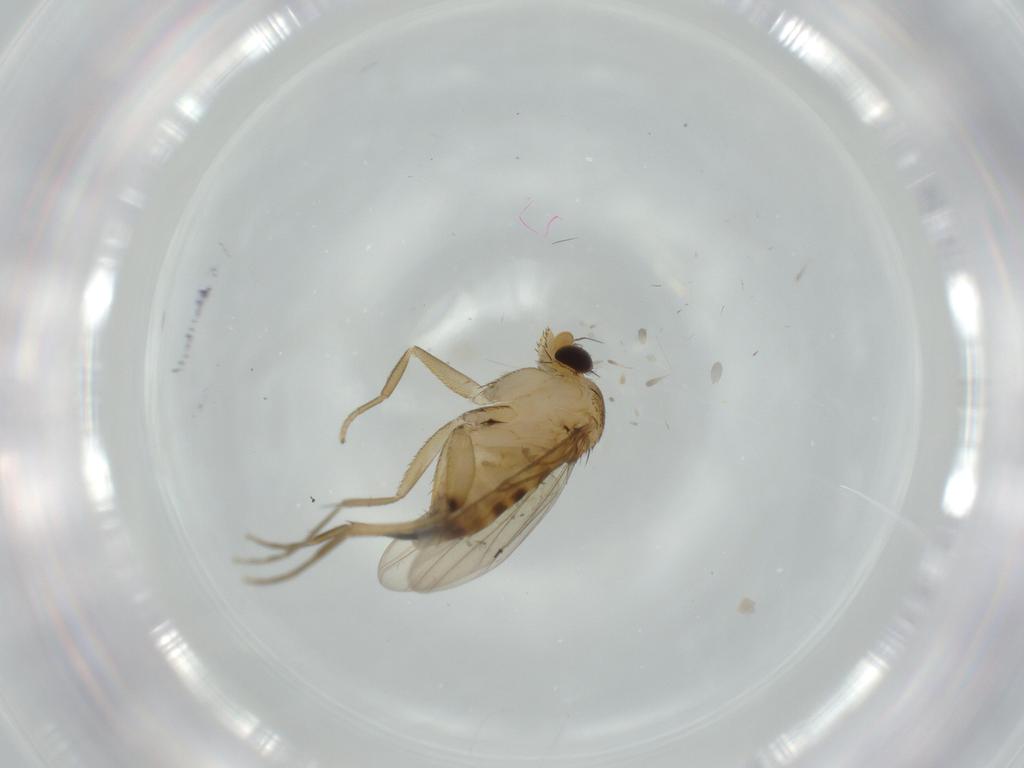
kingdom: Animalia
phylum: Arthropoda
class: Insecta
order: Diptera
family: Phoridae
